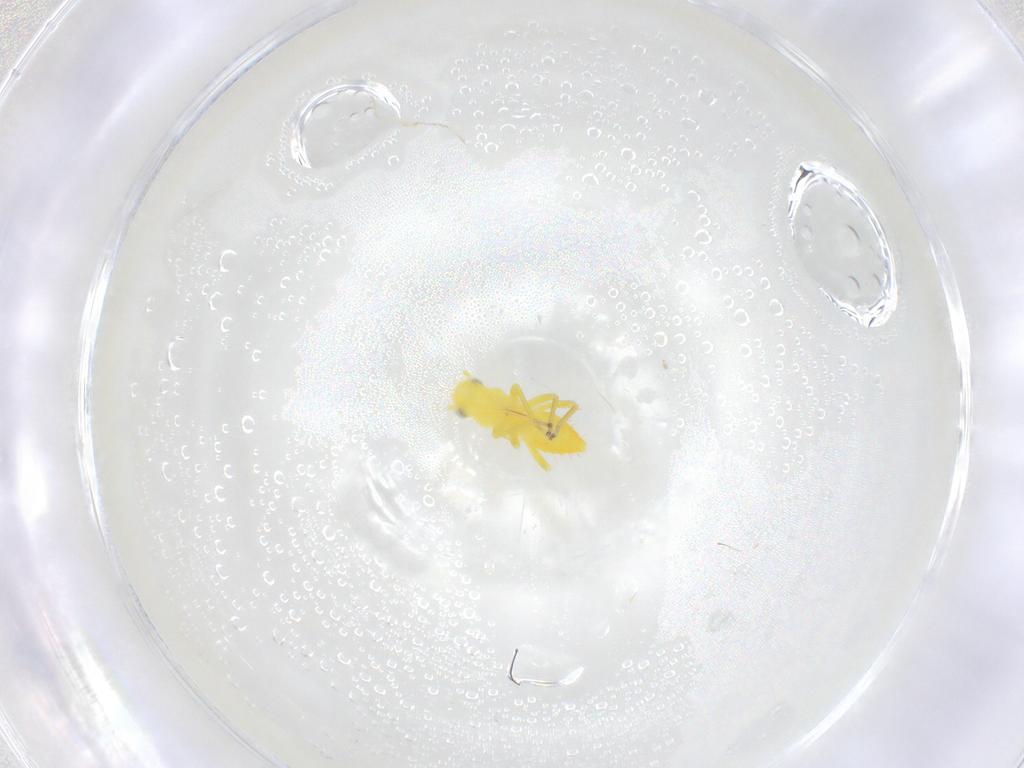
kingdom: Animalia
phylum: Arthropoda
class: Insecta
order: Hemiptera
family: Cicadellidae
